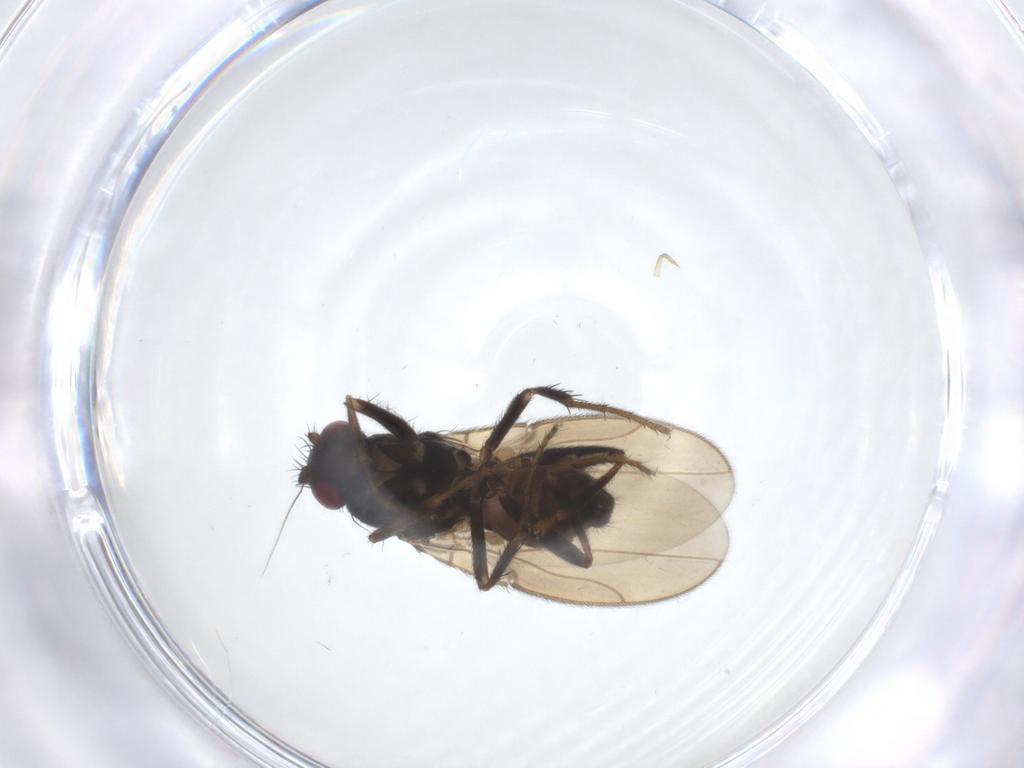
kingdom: Animalia
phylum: Arthropoda
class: Insecta
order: Diptera
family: Sphaeroceridae
